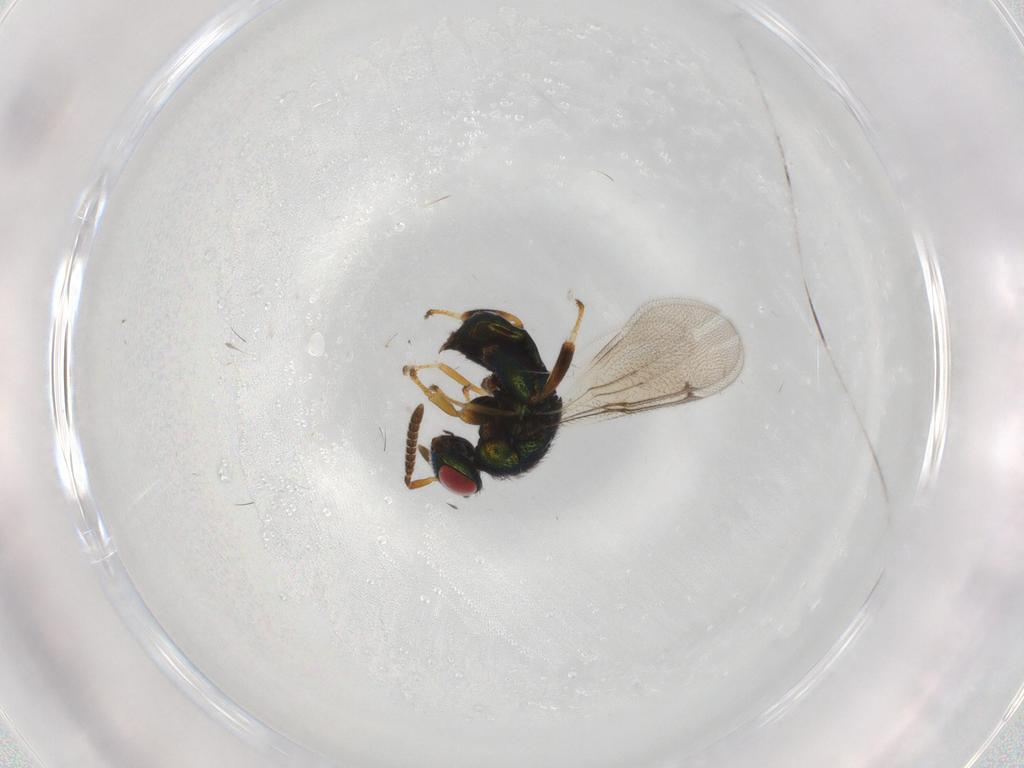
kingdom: Animalia
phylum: Arthropoda
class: Insecta
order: Hymenoptera
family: Torymidae
